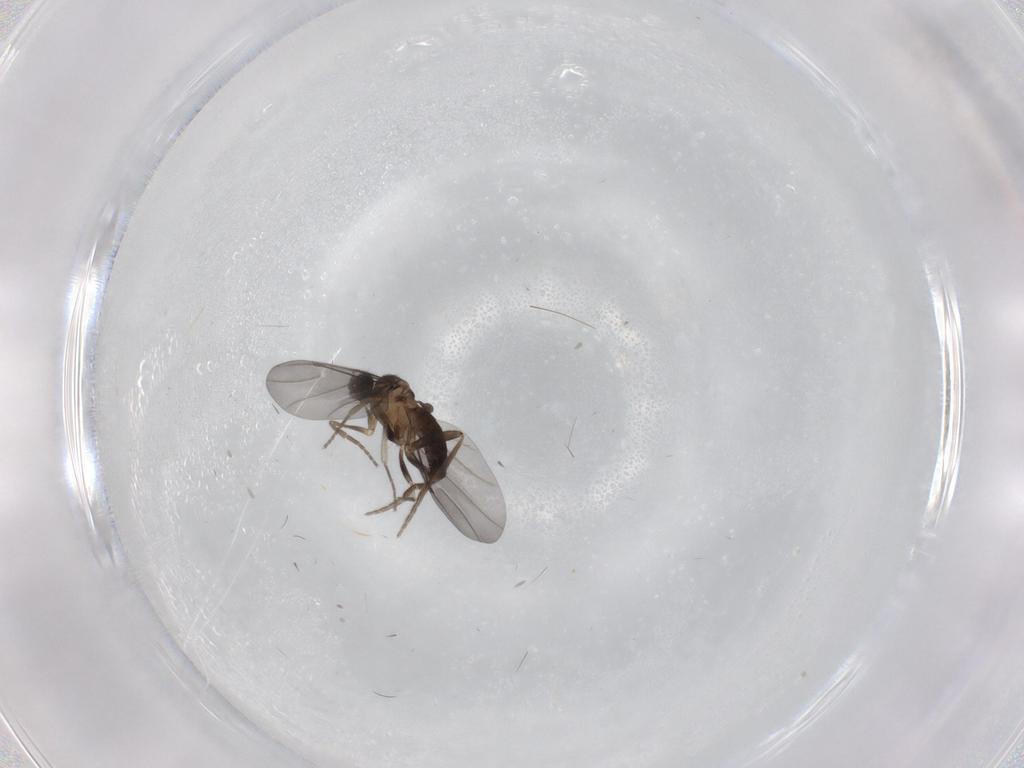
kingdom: Animalia
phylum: Arthropoda
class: Insecta
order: Diptera
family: Phoridae
